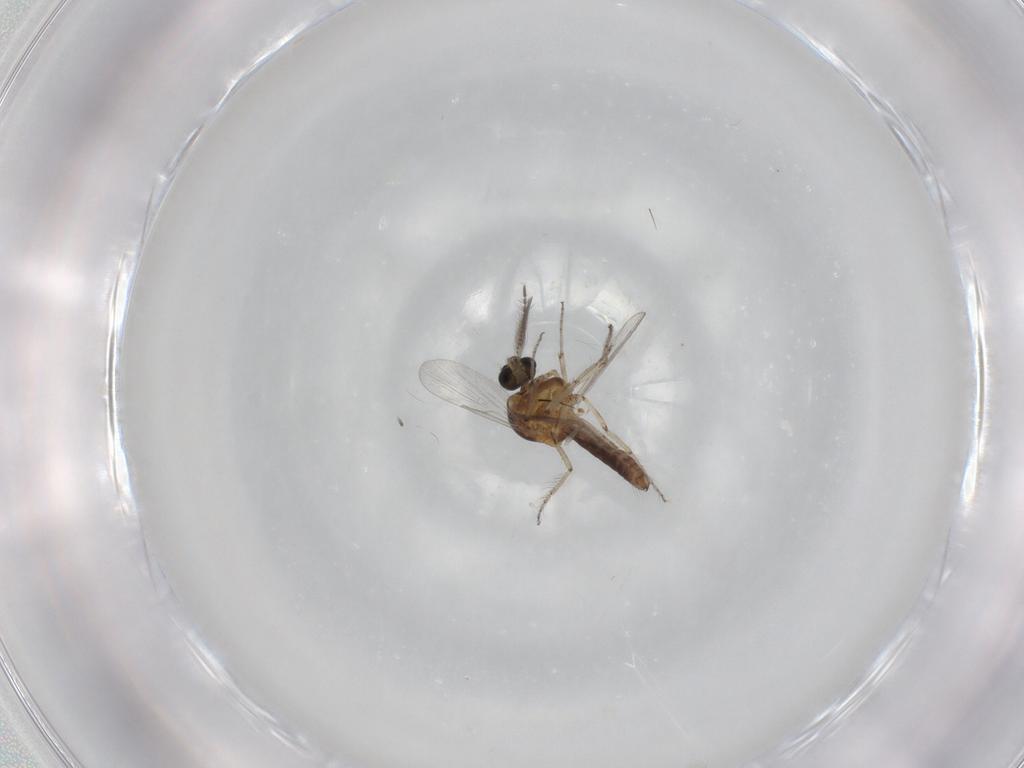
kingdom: Animalia
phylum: Arthropoda
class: Insecta
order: Diptera
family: Ceratopogonidae
